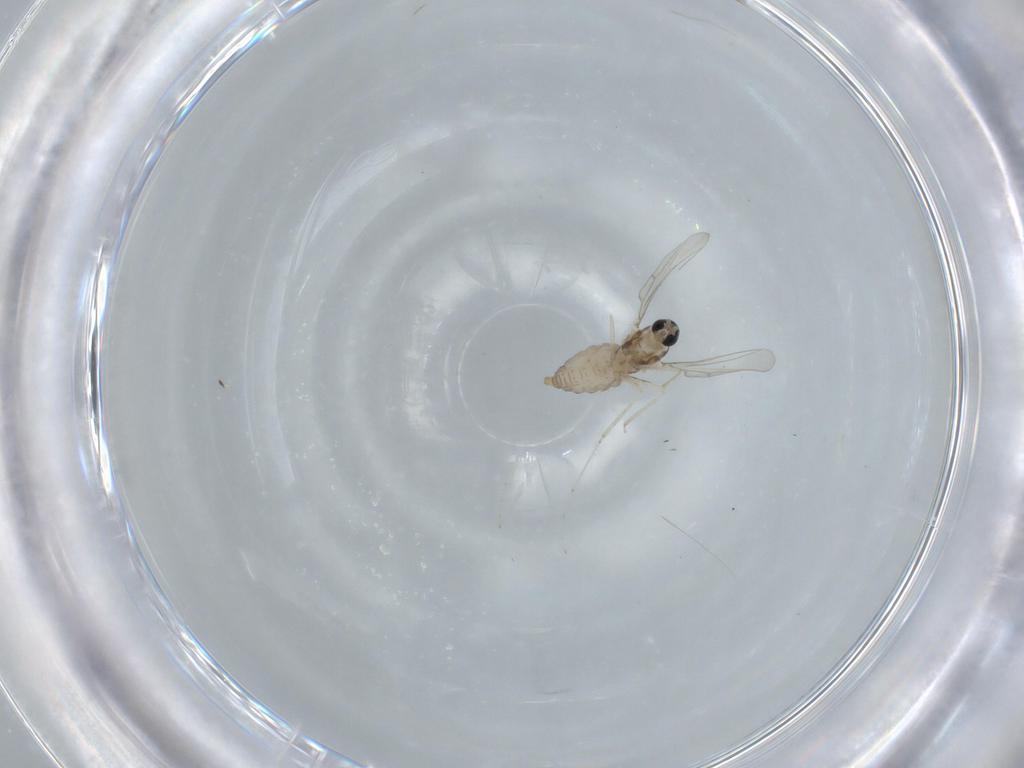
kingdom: Animalia
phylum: Arthropoda
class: Insecta
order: Diptera
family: Cecidomyiidae
